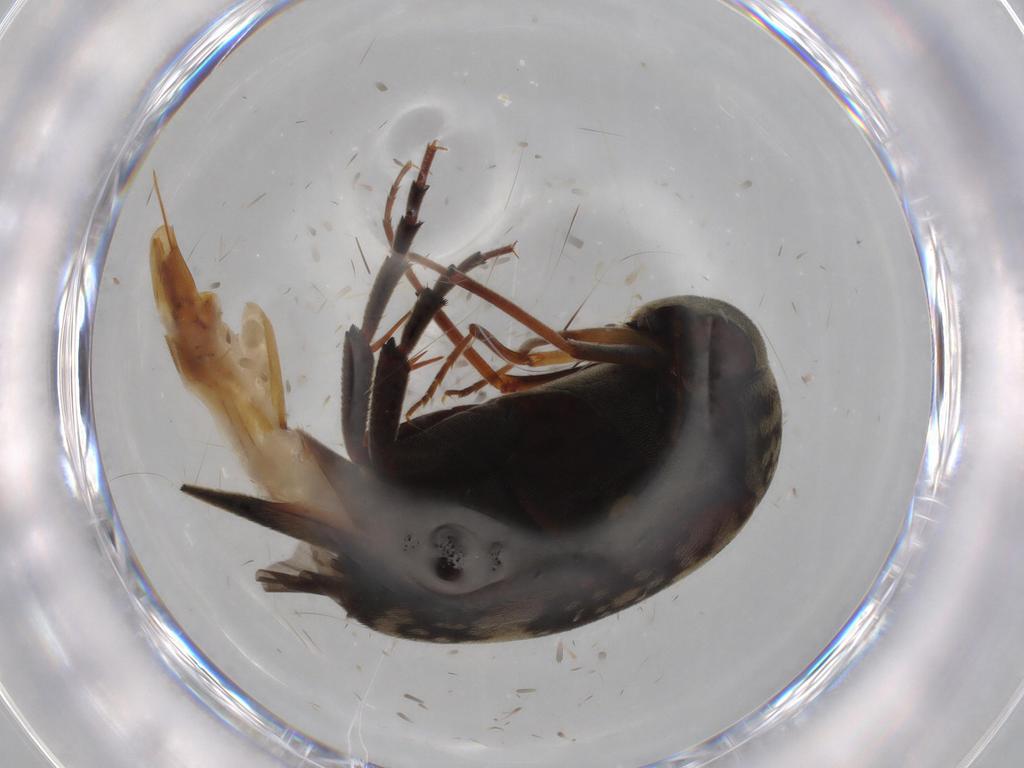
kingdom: Animalia
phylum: Arthropoda
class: Insecta
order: Coleoptera
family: Mordellidae
